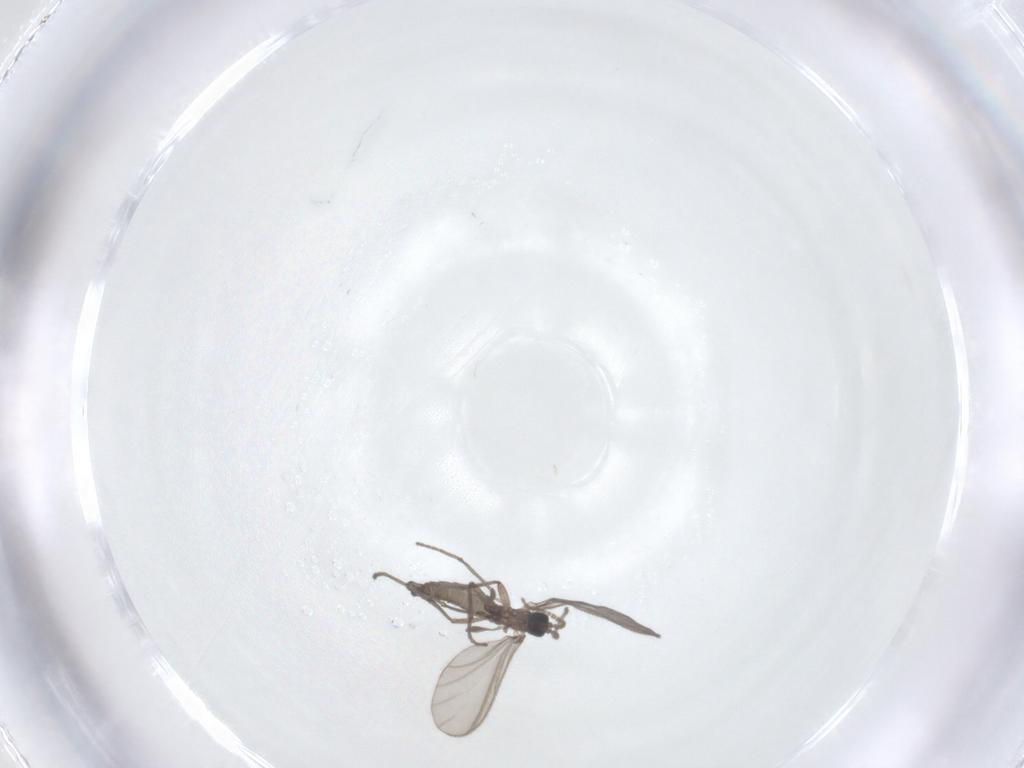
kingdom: Animalia
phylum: Arthropoda
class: Insecta
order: Diptera
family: Sciaridae
